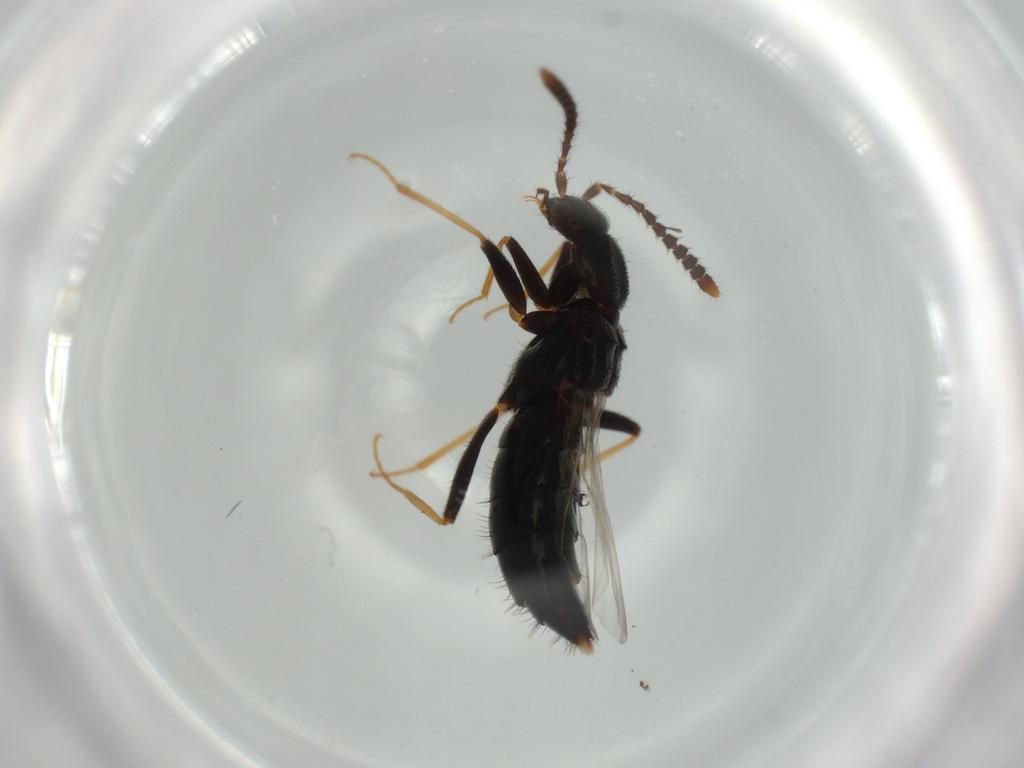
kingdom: Animalia
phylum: Arthropoda
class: Insecta
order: Coleoptera
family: Staphylinidae
